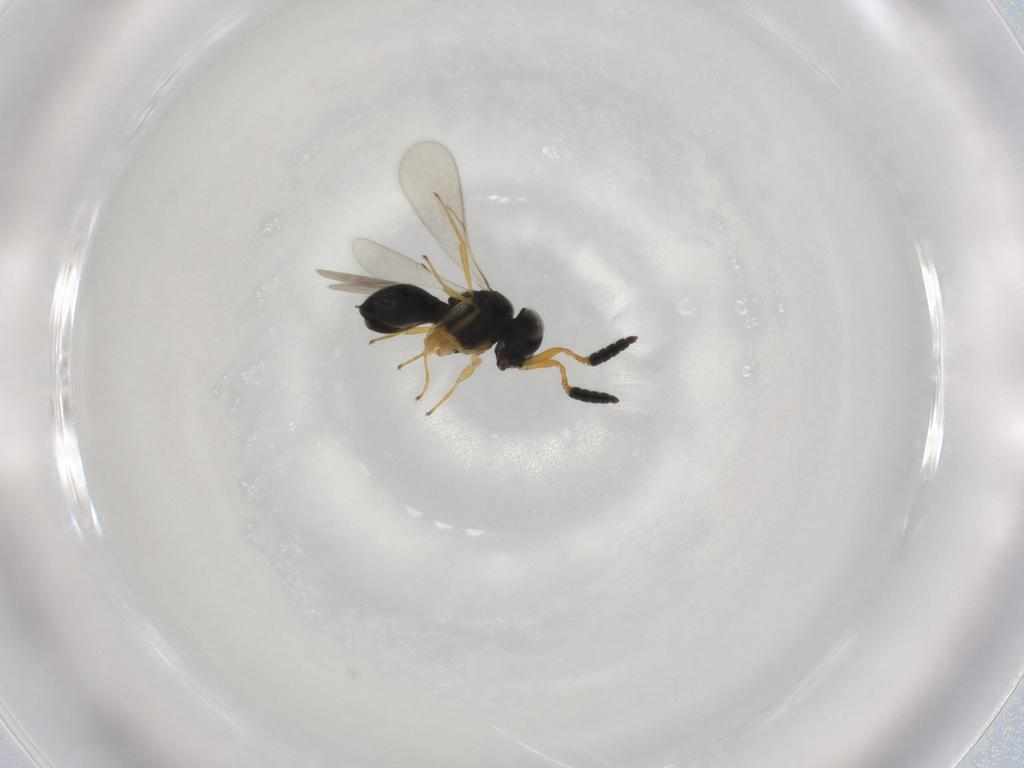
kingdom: Animalia
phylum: Arthropoda
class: Insecta
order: Hymenoptera
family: Scelionidae
